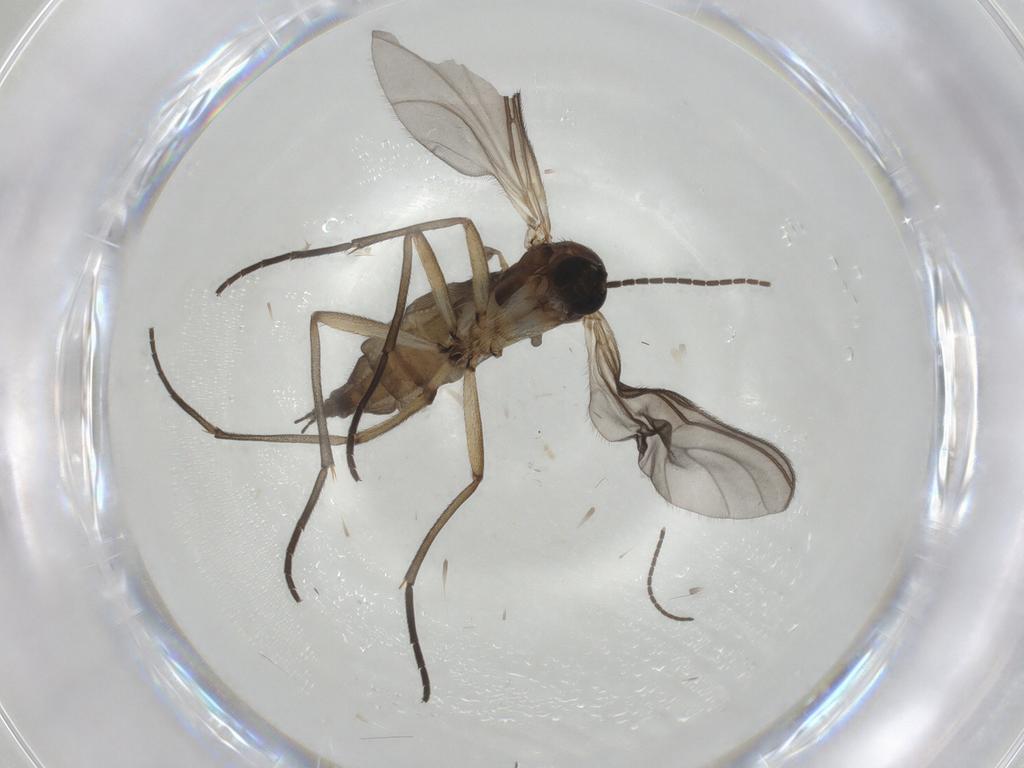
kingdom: Animalia
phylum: Arthropoda
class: Insecta
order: Diptera
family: Sciaridae
